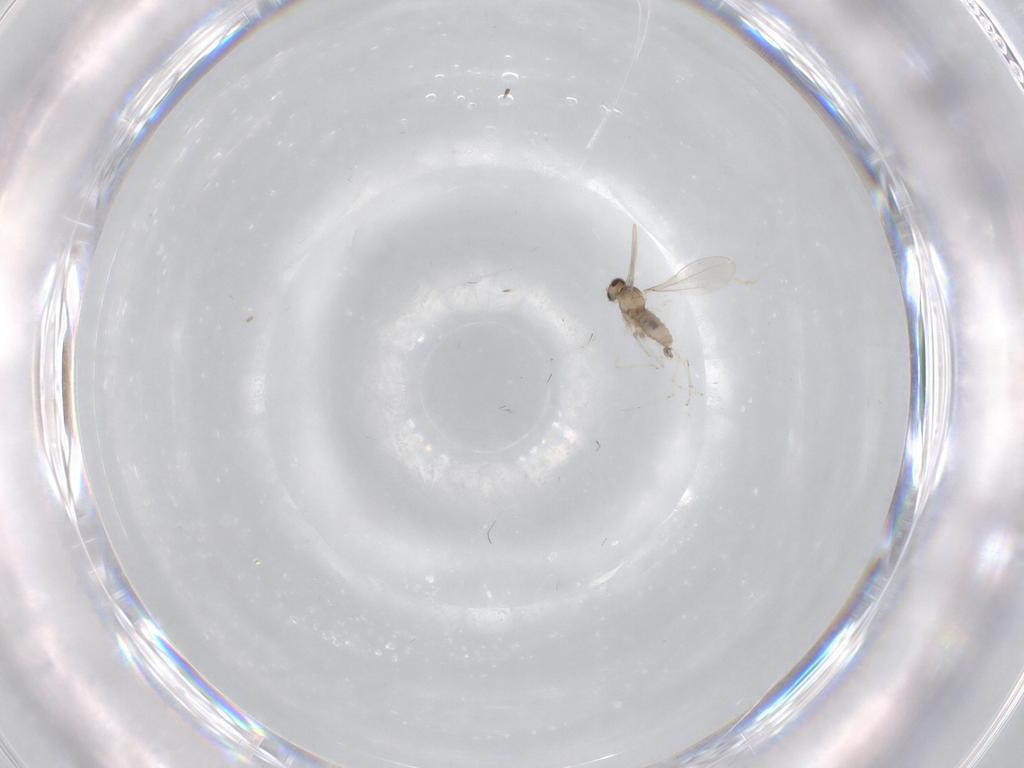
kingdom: Animalia
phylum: Arthropoda
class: Insecta
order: Diptera
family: Cecidomyiidae
